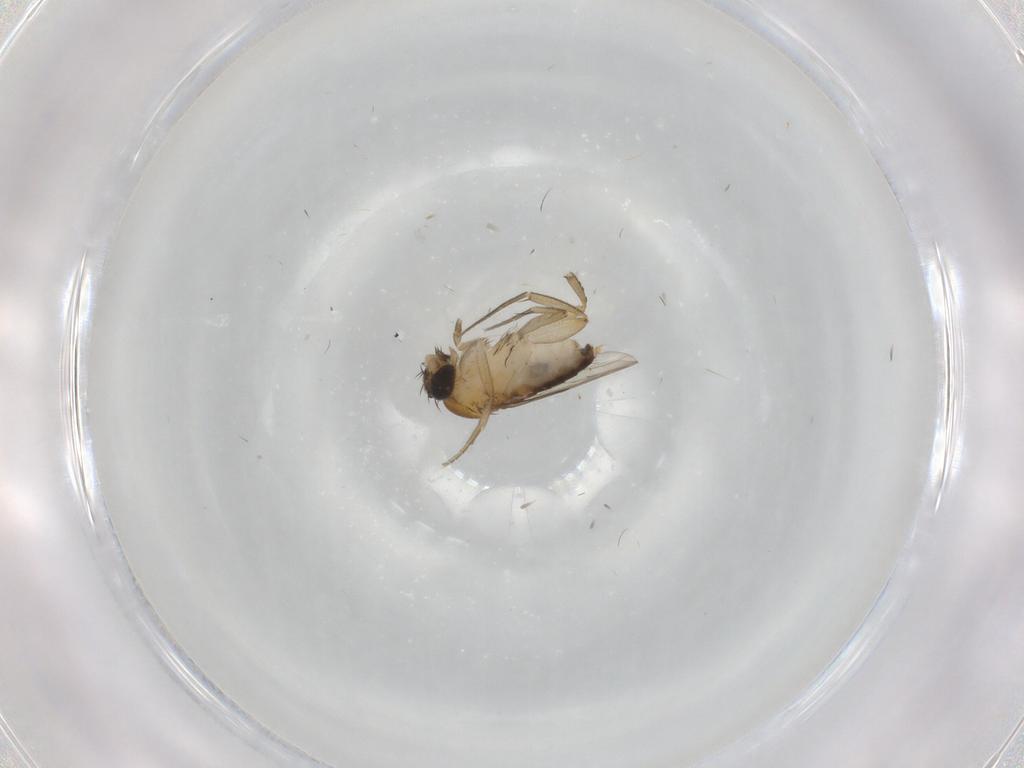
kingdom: Animalia
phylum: Arthropoda
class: Insecta
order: Diptera
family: Phoridae
